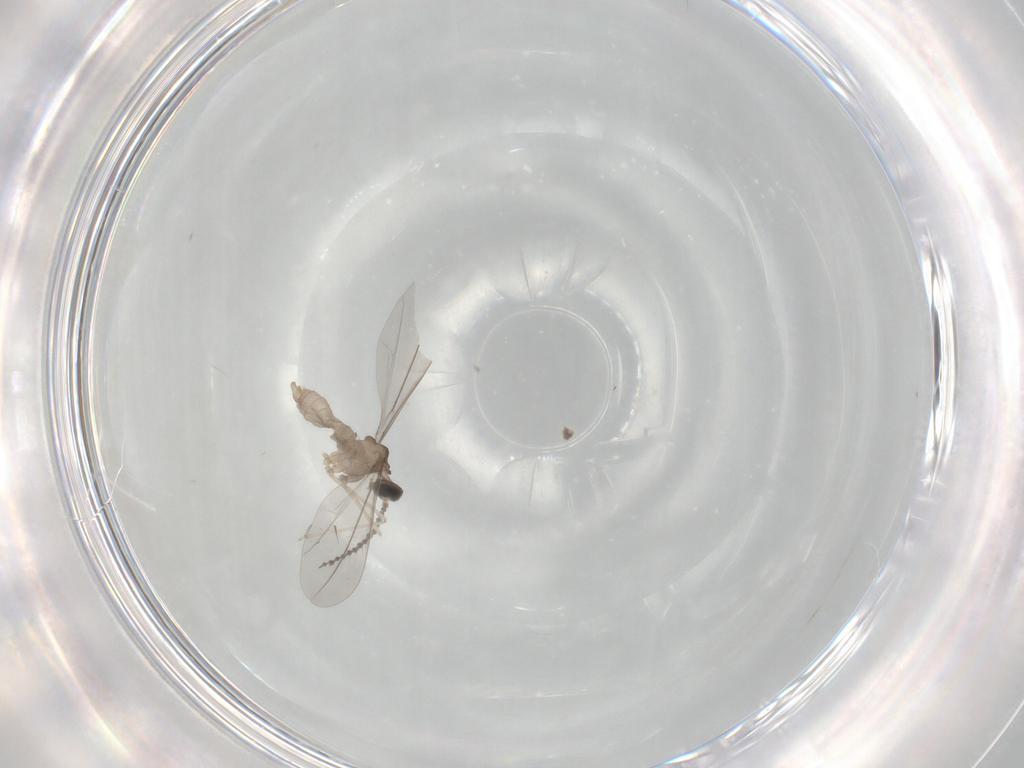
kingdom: Animalia
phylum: Arthropoda
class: Insecta
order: Diptera
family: Cecidomyiidae
